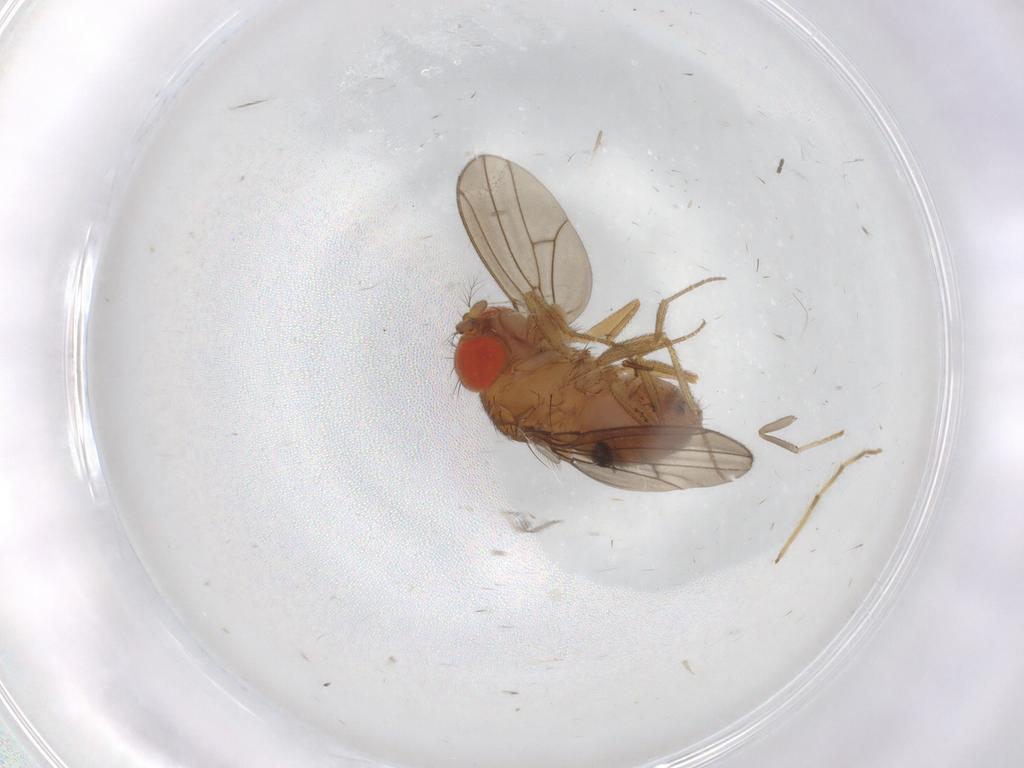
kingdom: Animalia
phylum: Arthropoda
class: Insecta
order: Diptera
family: Drosophilidae
